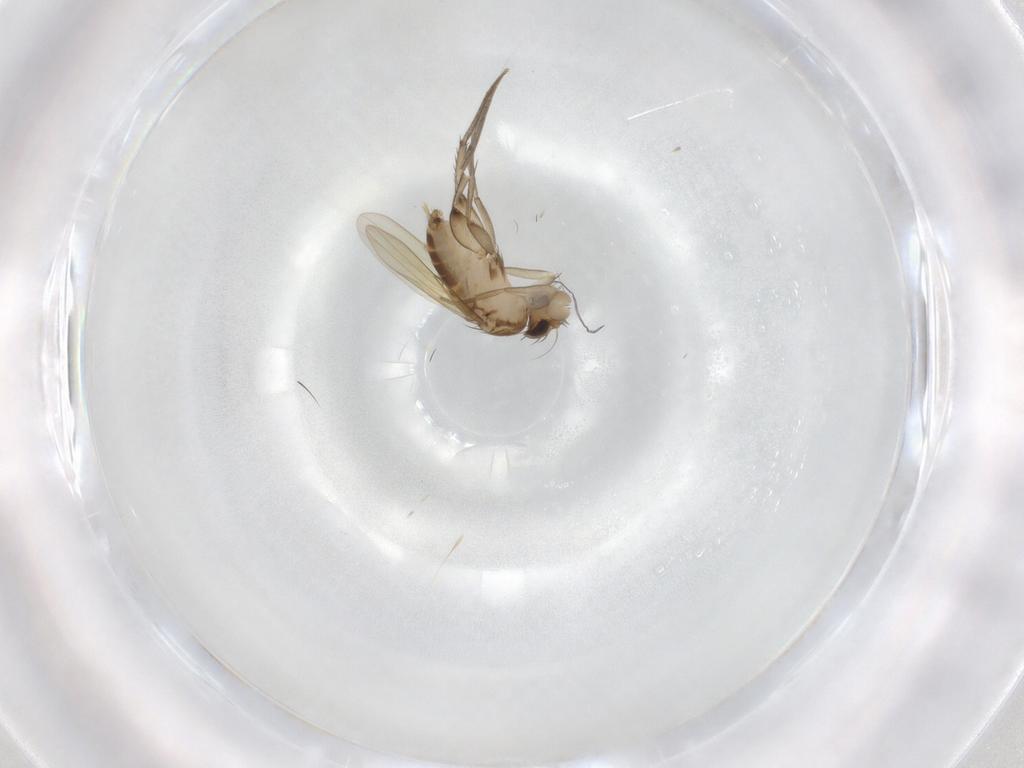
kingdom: Animalia
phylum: Arthropoda
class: Insecta
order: Diptera
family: Phoridae
